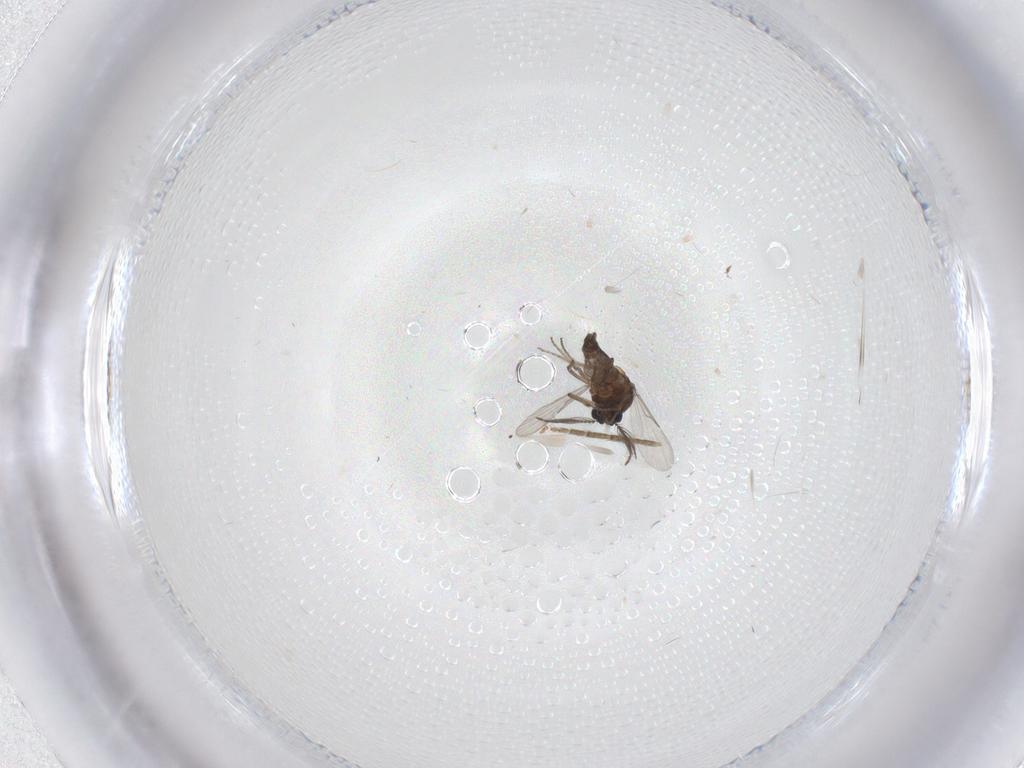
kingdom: Animalia
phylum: Arthropoda
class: Insecta
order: Diptera
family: Ceratopogonidae
